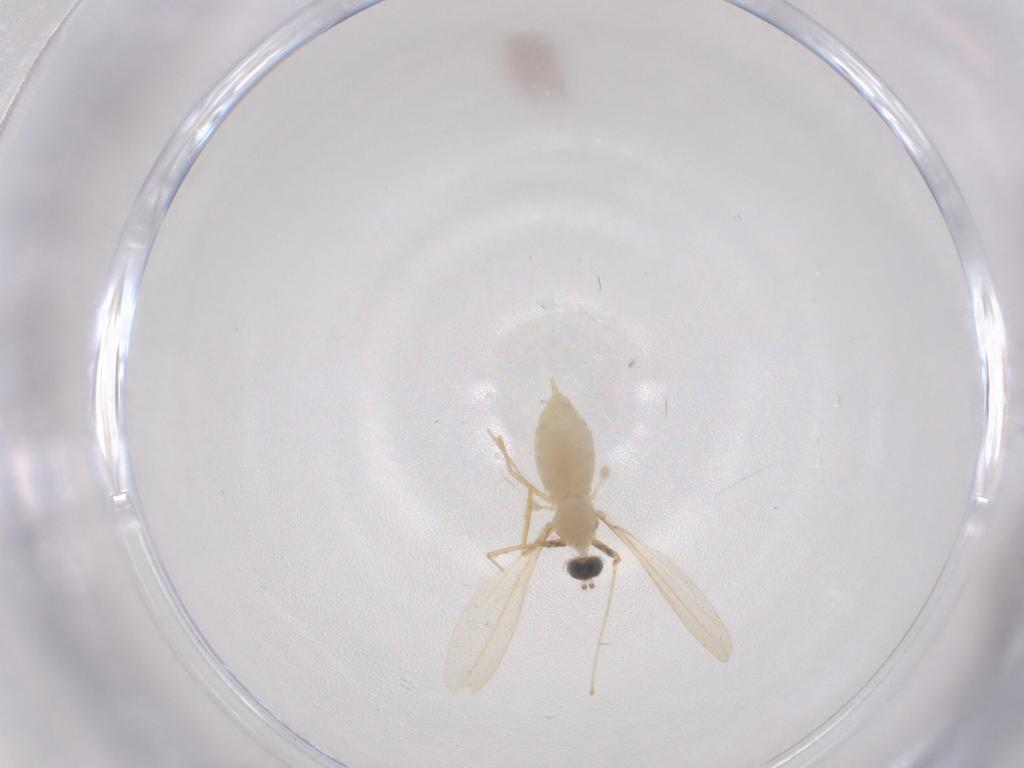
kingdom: Animalia
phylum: Arthropoda
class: Insecta
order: Diptera
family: Cecidomyiidae
